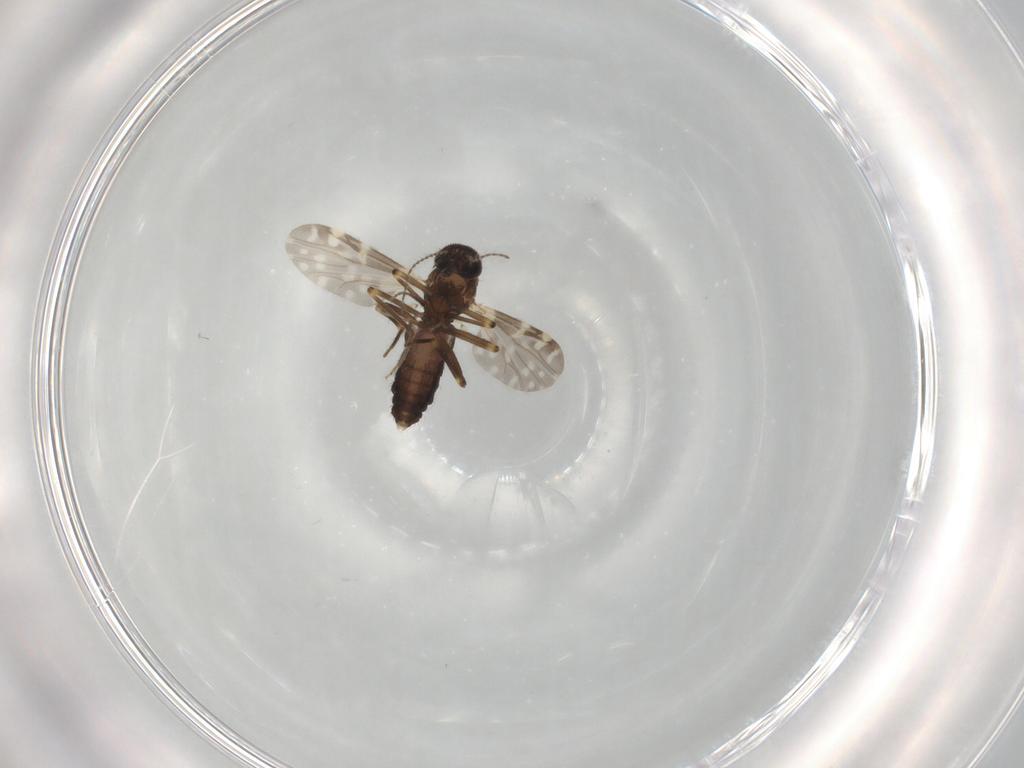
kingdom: Animalia
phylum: Arthropoda
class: Insecta
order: Diptera
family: Ceratopogonidae
